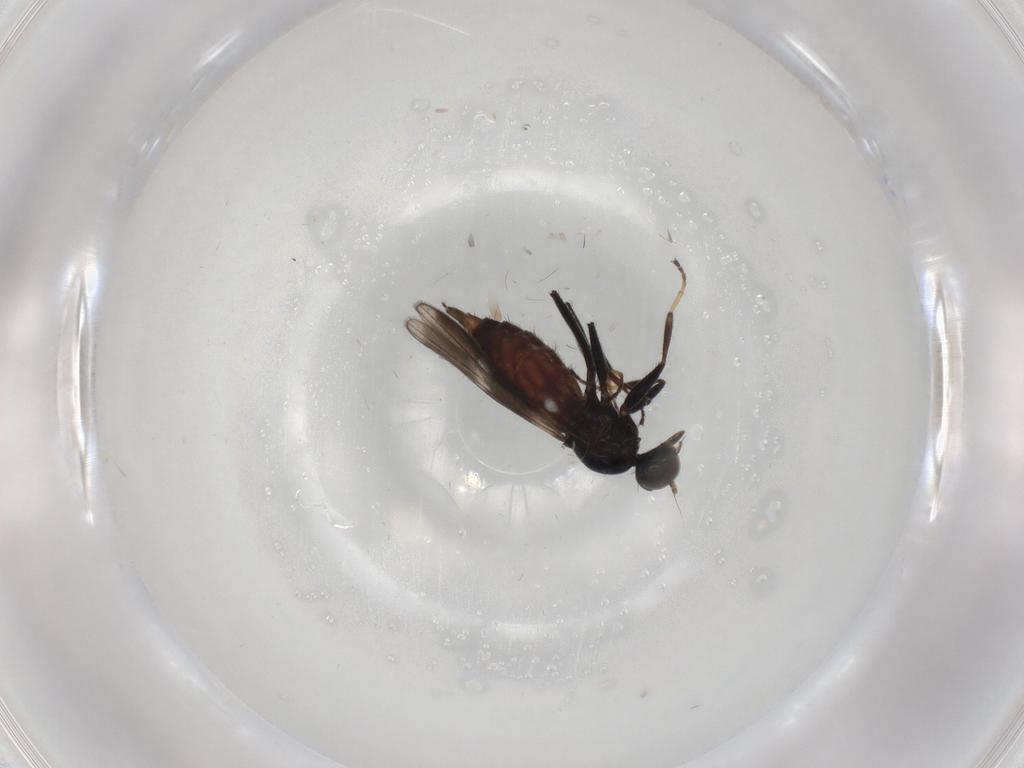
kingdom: Animalia
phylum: Arthropoda
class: Insecta
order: Diptera
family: Hybotidae
